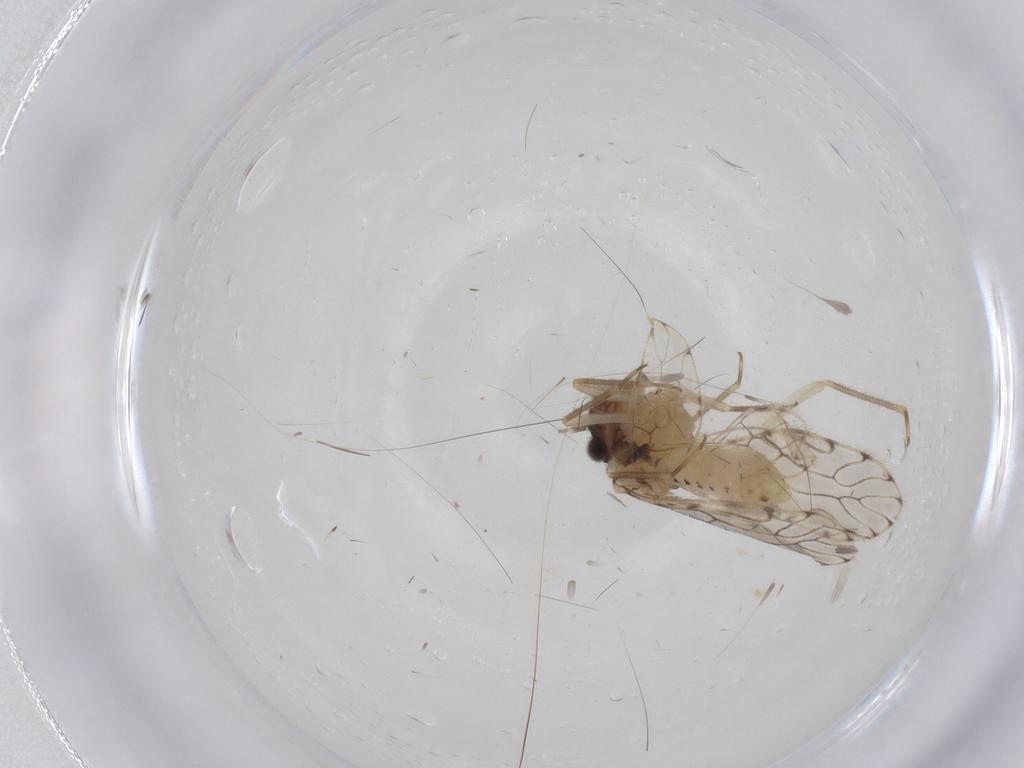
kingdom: Animalia
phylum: Arthropoda
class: Insecta
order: Psocodea
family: Epipsocidae
